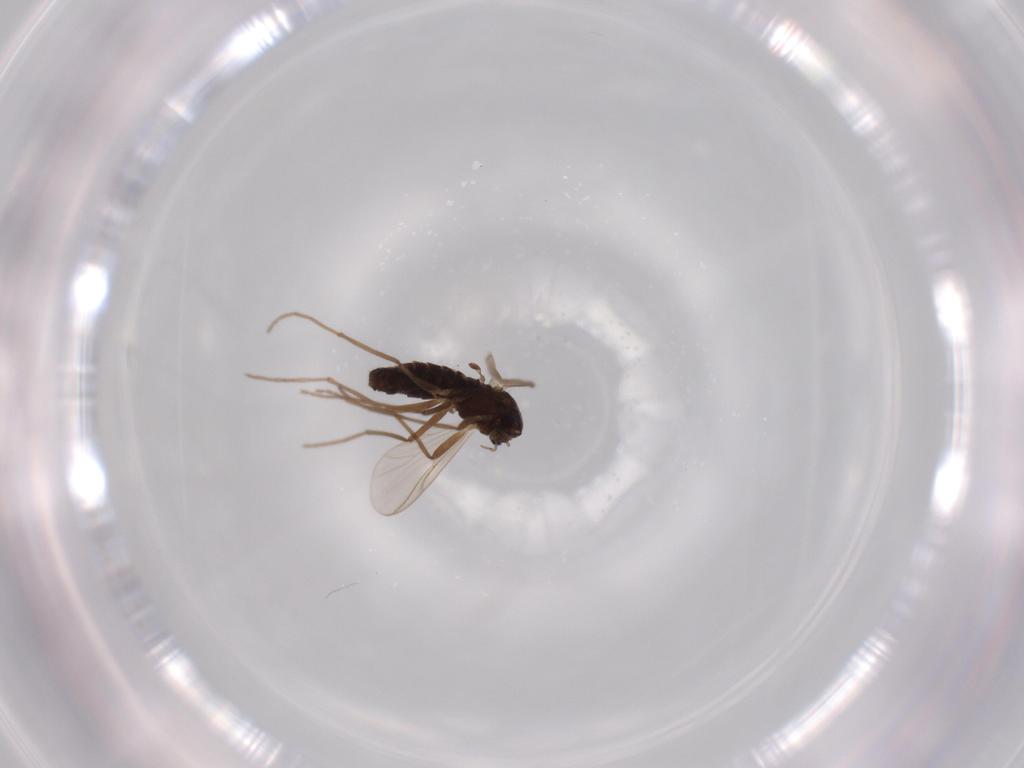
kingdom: Animalia
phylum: Arthropoda
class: Insecta
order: Diptera
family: Chironomidae
